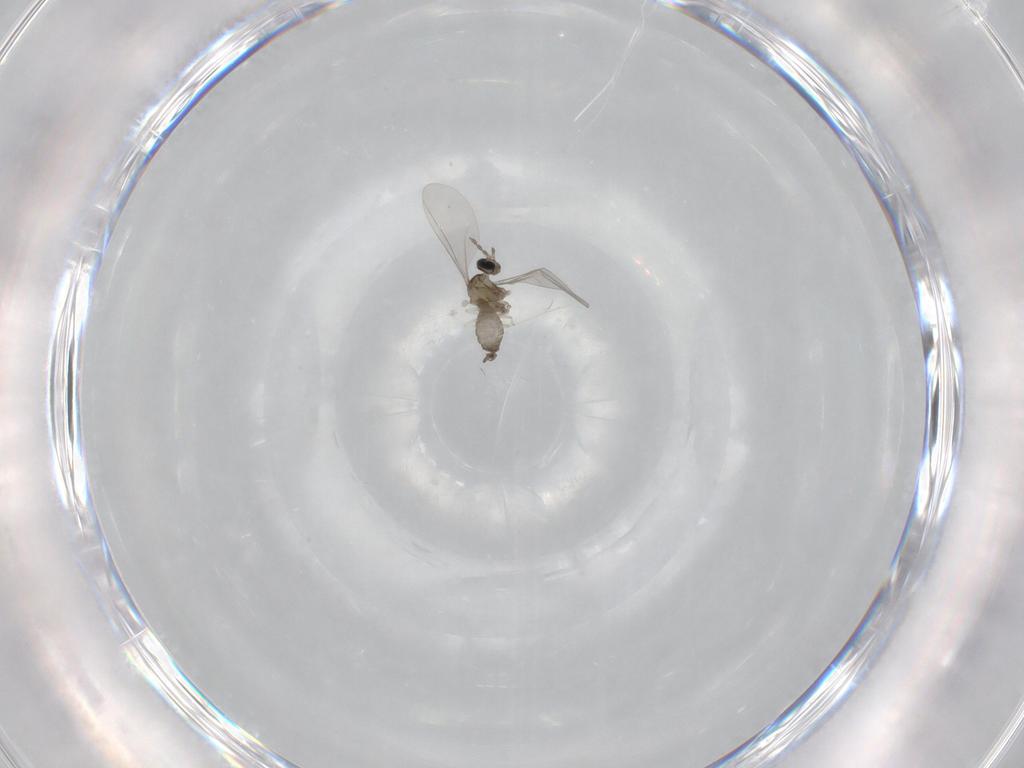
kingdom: Animalia
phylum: Arthropoda
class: Insecta
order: Diptera
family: Cecidomyiidae
